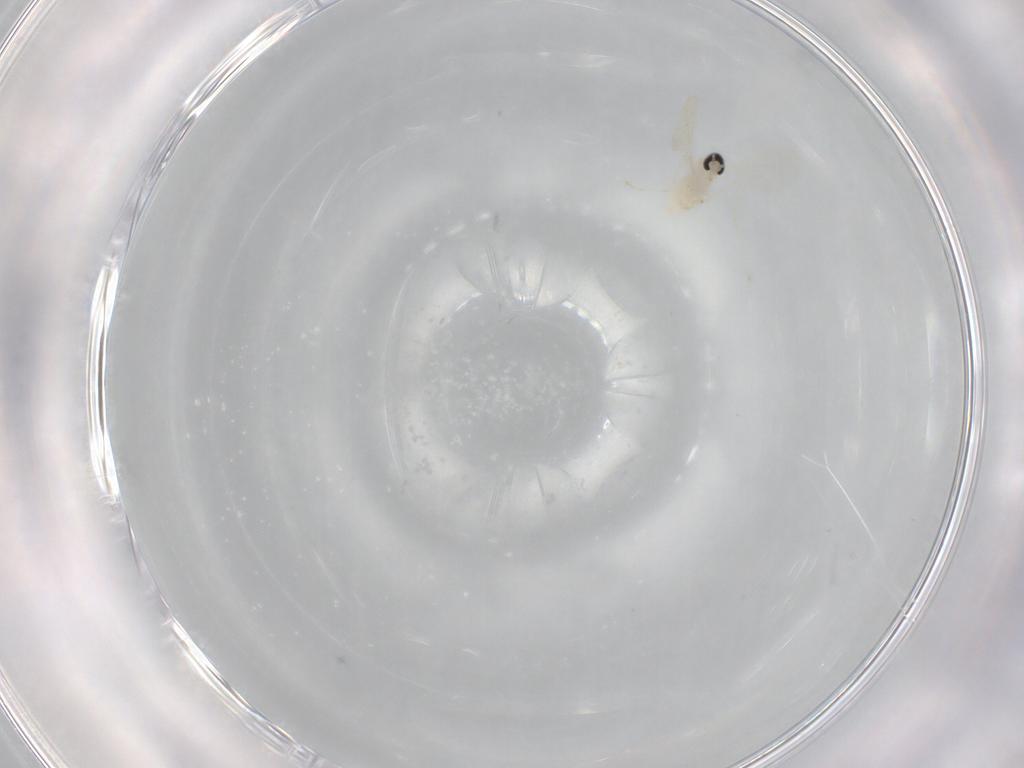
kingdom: Animalia
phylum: Arthropoda
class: Insecta
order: Diptera
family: Cecidomyiidae
